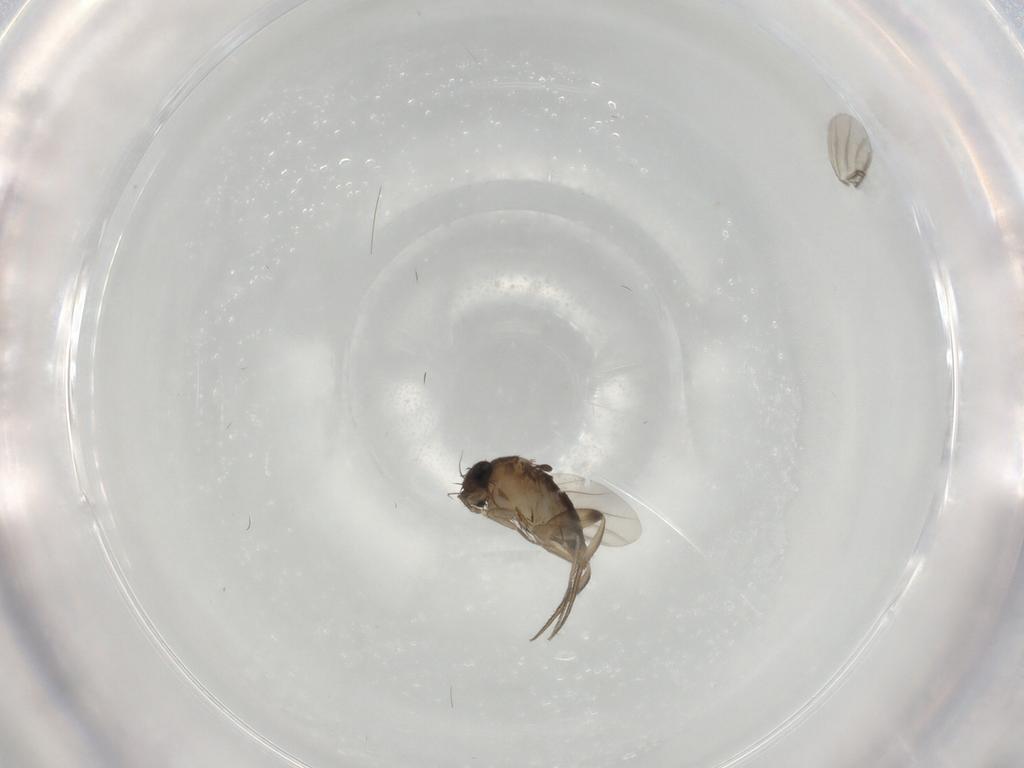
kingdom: Animalia
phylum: Arthropoda
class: Insecta
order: Diptera
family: Phoridae
